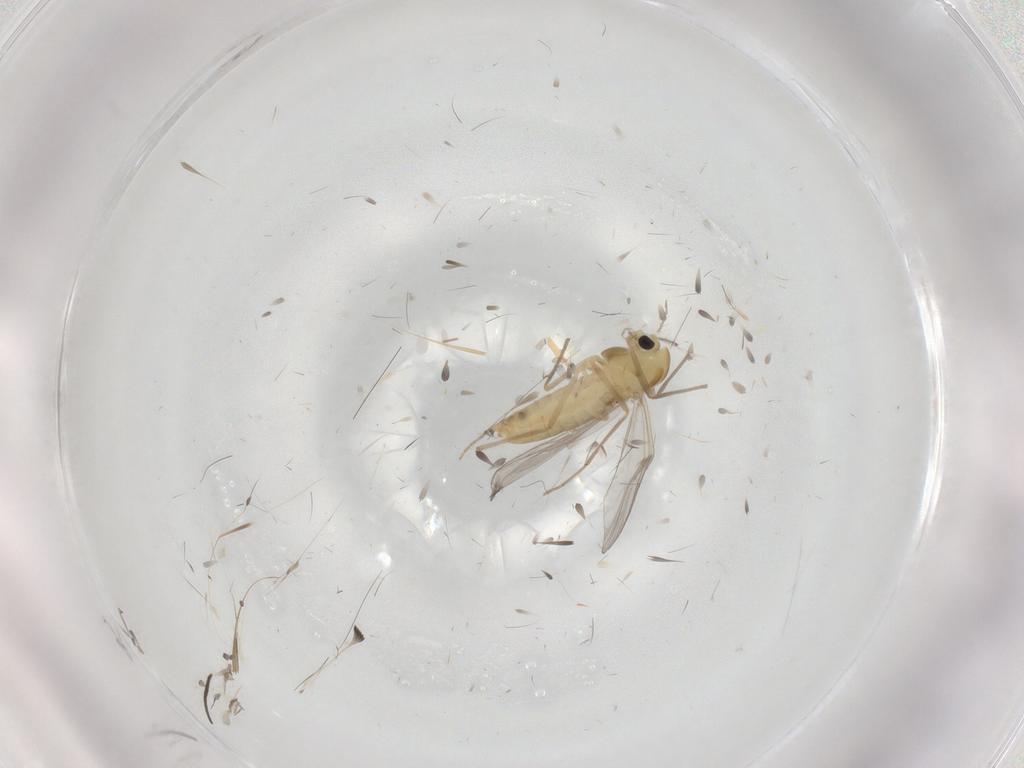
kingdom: Animalia
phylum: Arthropoda
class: Insecta
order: Diptera
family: Chironomidae
